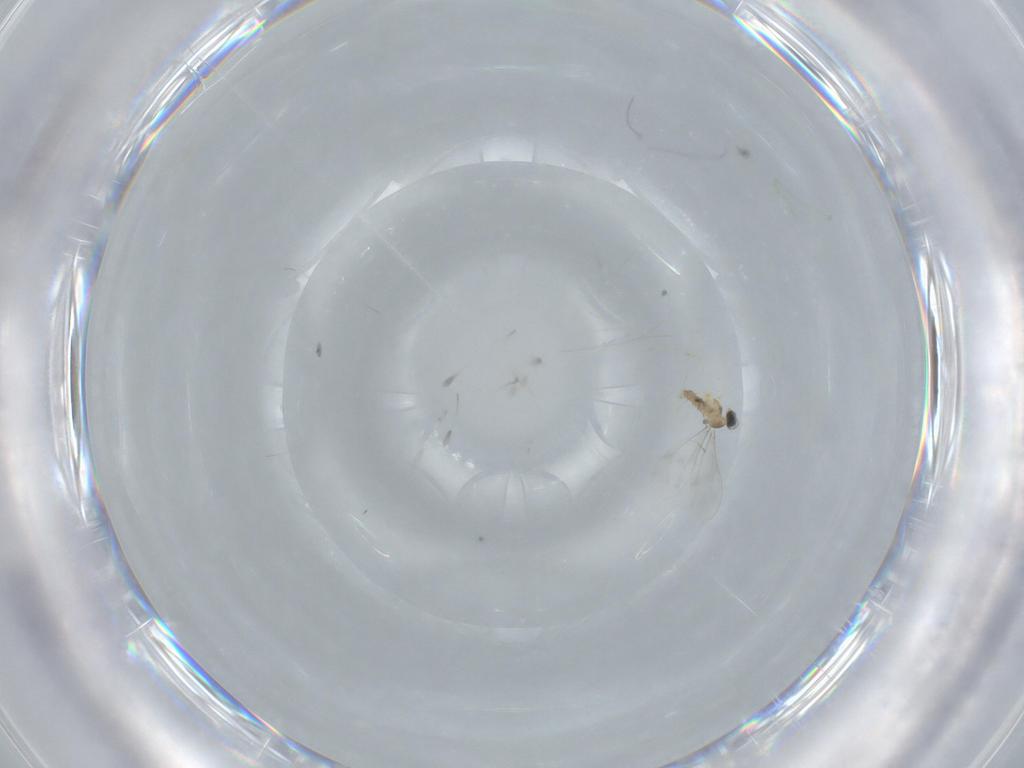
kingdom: Animalia
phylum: Arthropoda
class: Insecta
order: Diptera
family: Cecidomyiidae
